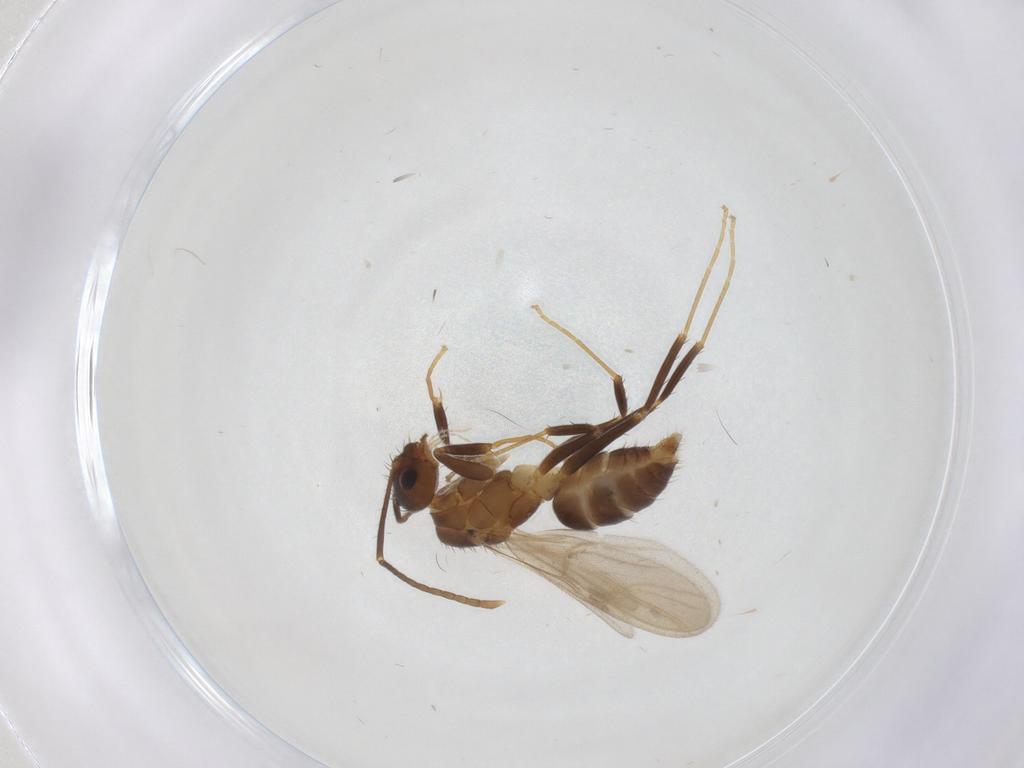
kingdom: Animalia
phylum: Arthropoda
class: Insecta
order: Hymenoptera
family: Formicidae
